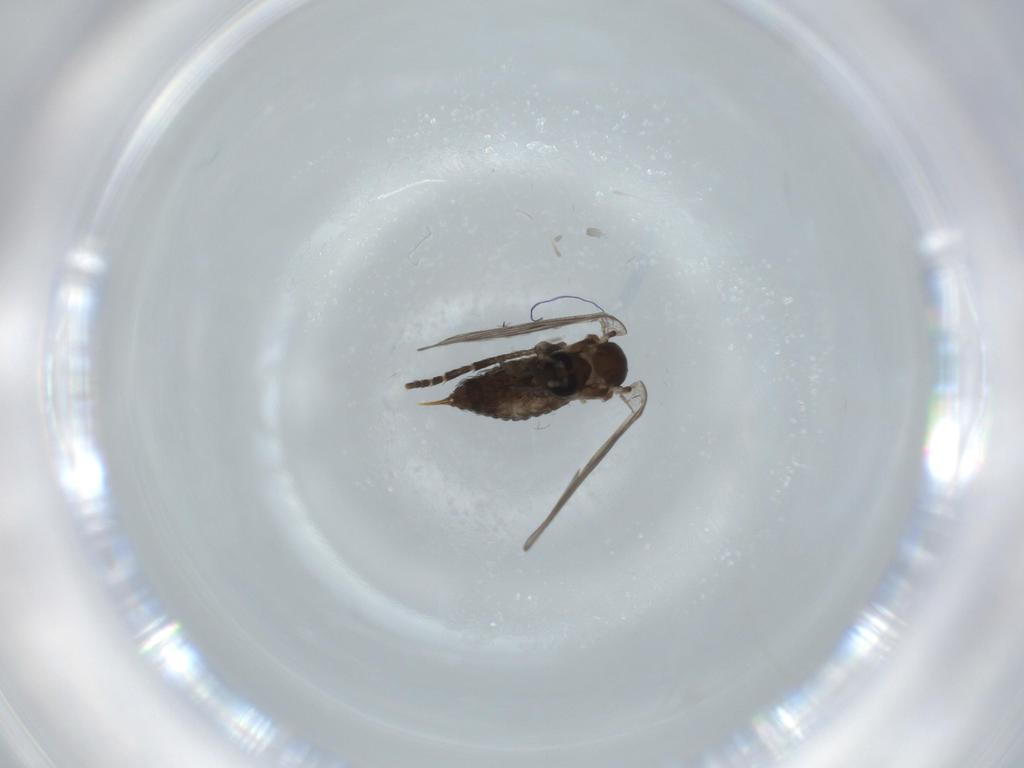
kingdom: Animalia
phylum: Arthropoda
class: Insecta
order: Diptera
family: Psychodidae
